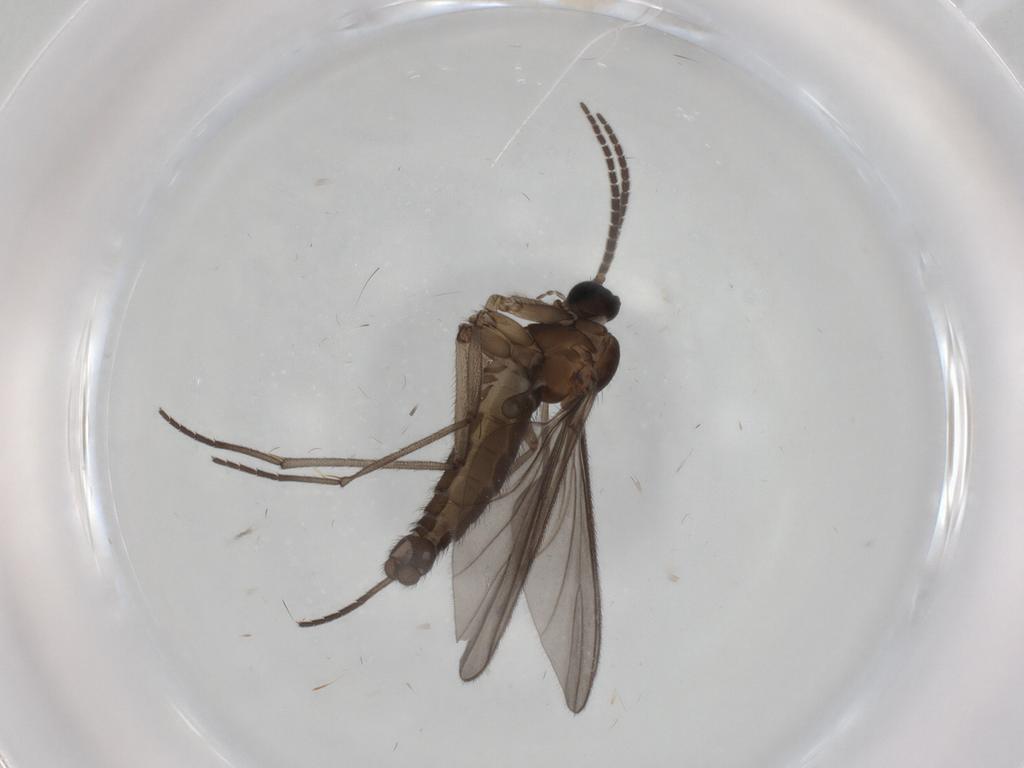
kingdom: Animalia
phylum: Arthropoda
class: Insecta
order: Diptera
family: Sciaridae
